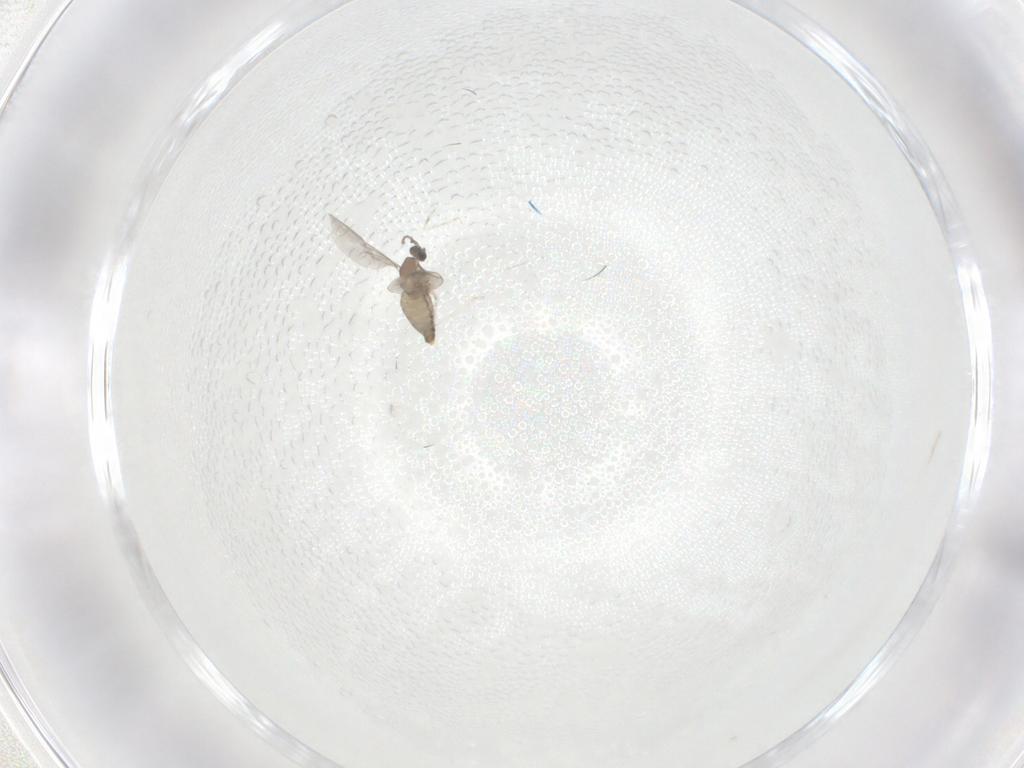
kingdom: Animalia
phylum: Arthropoda
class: Insecta
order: Diptera
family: Cecidomyiidae
